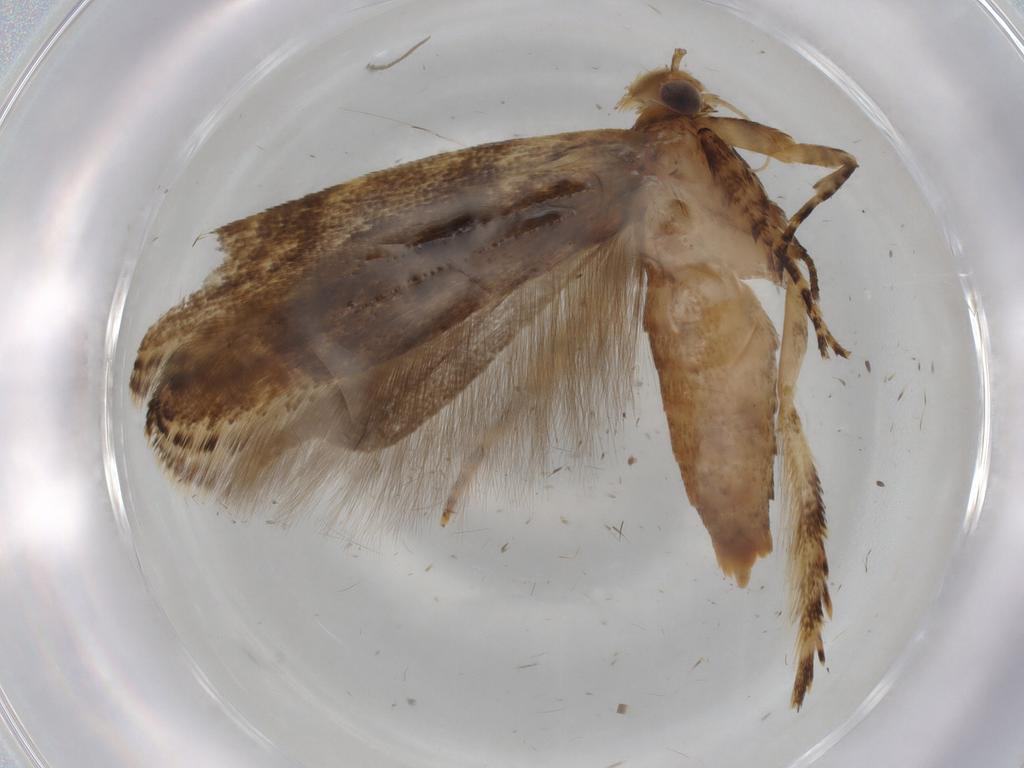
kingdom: Animalia
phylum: Arthropoda
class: Insecta
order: Lepidoptera
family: Gelechiidae
